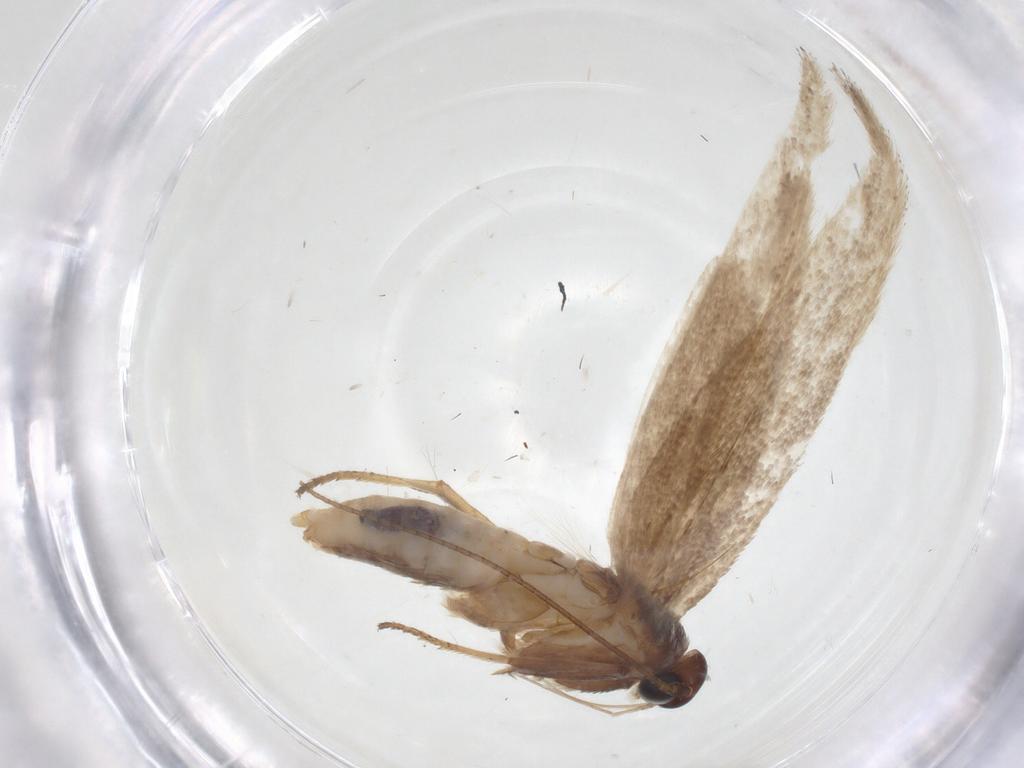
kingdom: Animalia
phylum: Arthropoda
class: Insecta
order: Lepidoptera
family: Gelechiidae
